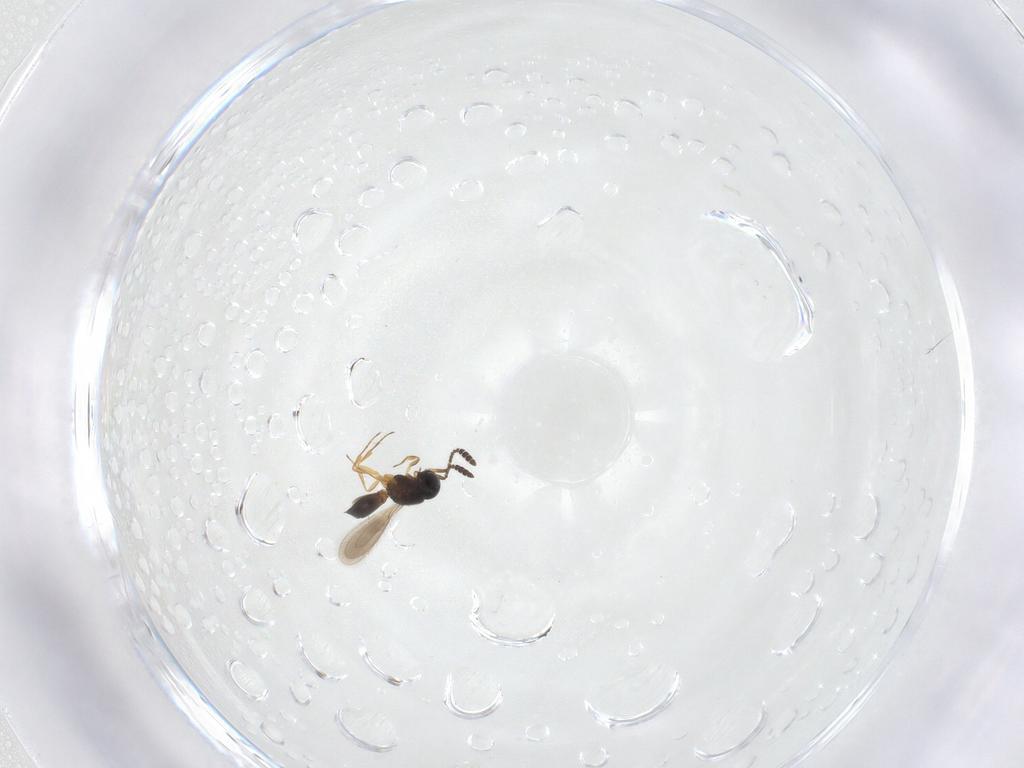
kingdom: Animalia
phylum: Arthropoda
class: Insecta
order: Hymenoptera
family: Scelionidae
